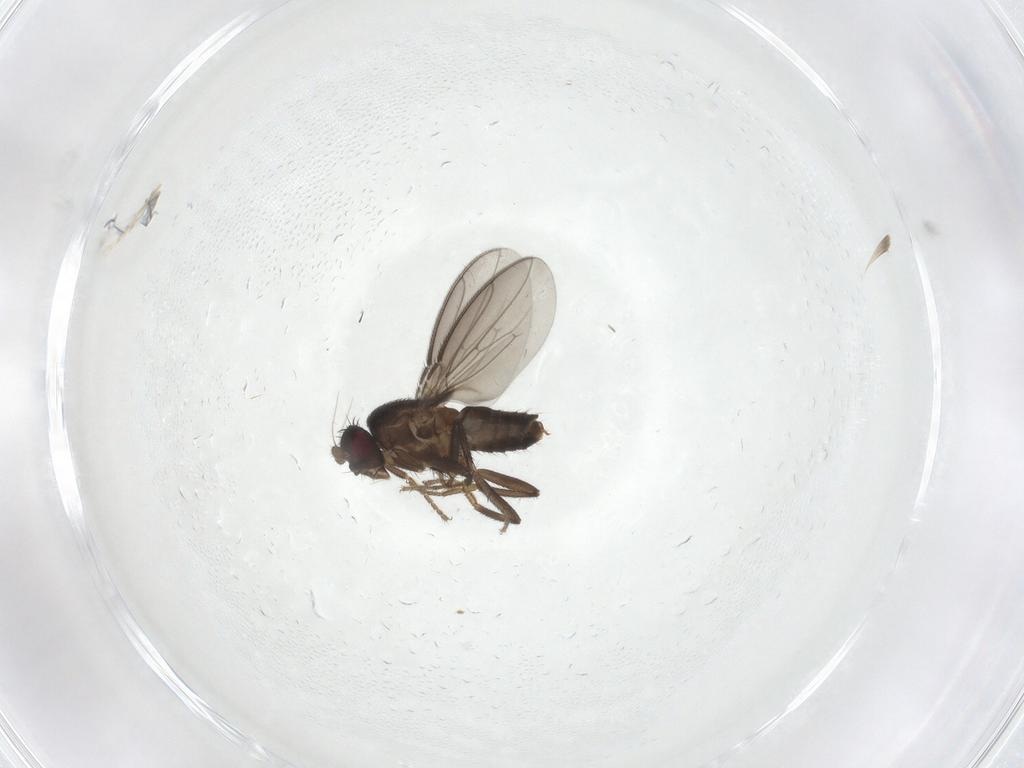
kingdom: Animalia
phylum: Arthropoda
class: Insecta
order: Diptera
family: Sphaeroceridae
